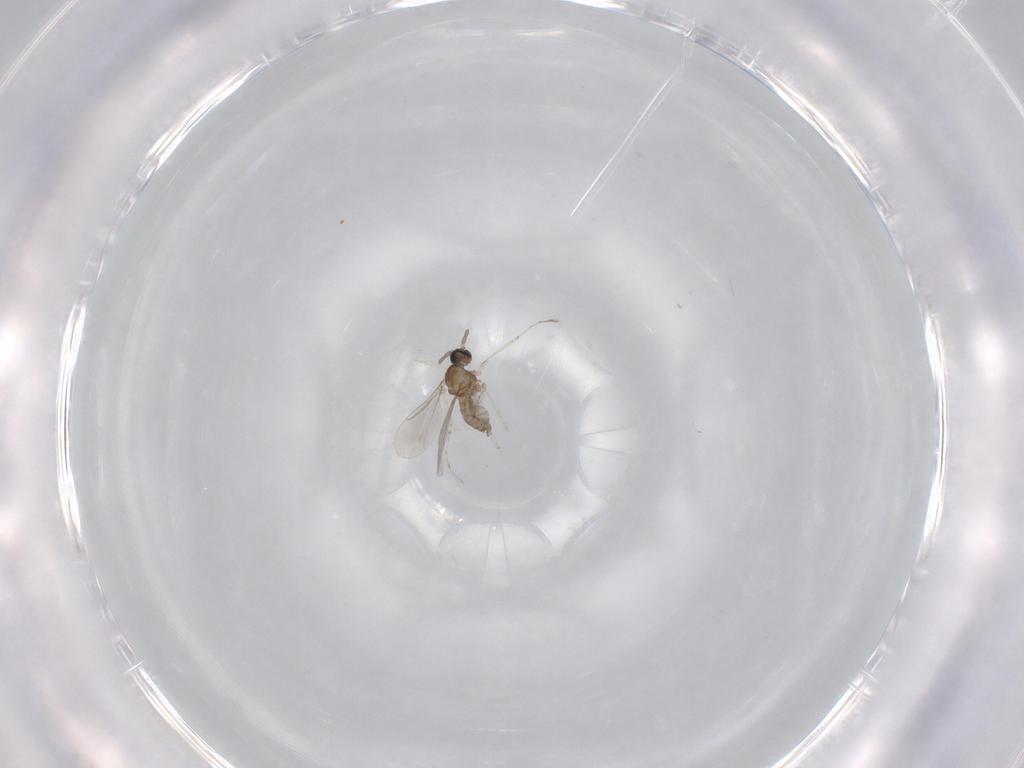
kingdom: Animalia
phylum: Arthropoda
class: Insecta
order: Diptera
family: Cecidomyiidae
